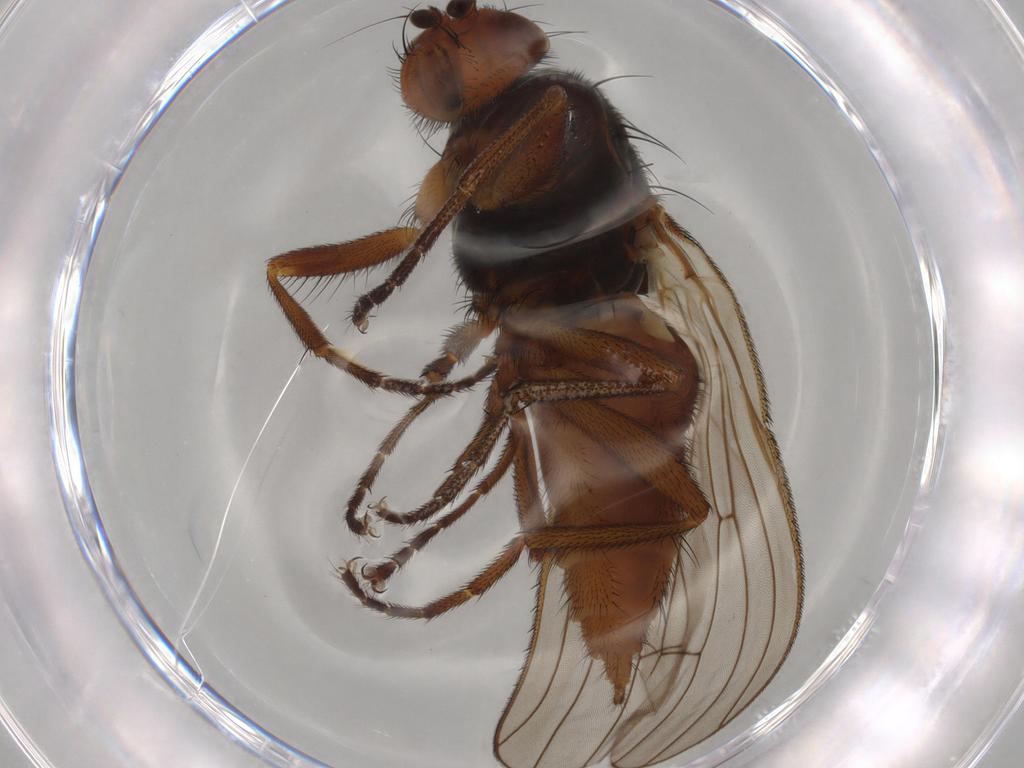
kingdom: Animalia
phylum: Arthropoda
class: Insecta
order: Diptera
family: Heleomyzidae
